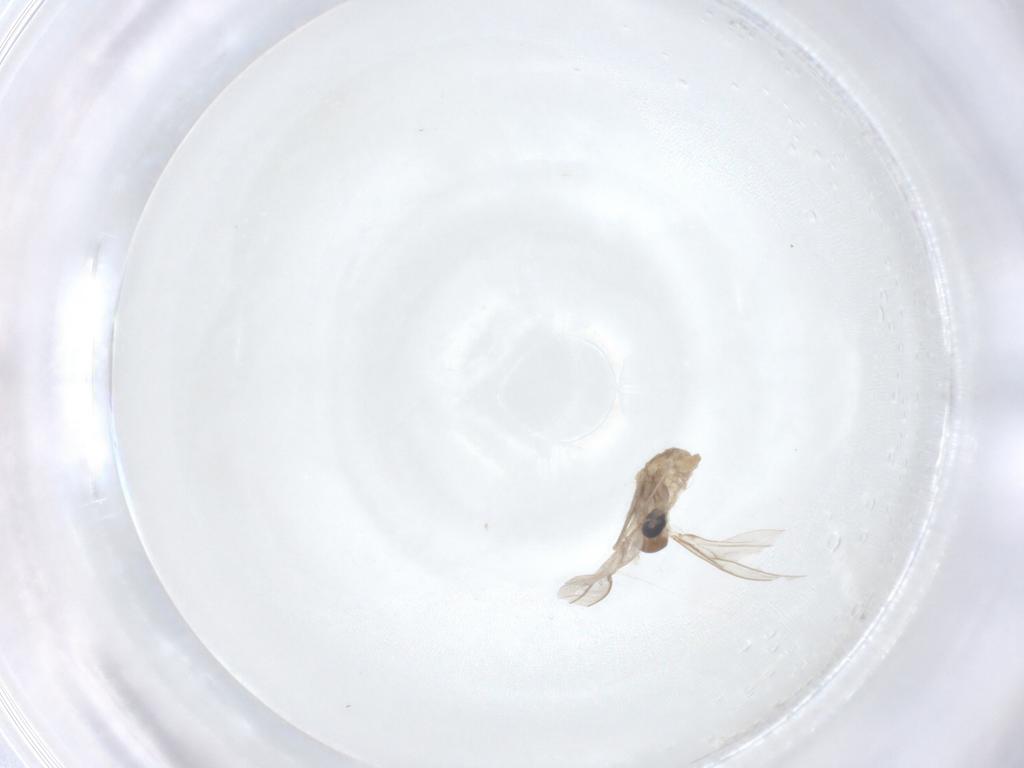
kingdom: Animalia
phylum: Arthropoda
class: Insecta
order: Diptera
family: Cecidomyiidae
